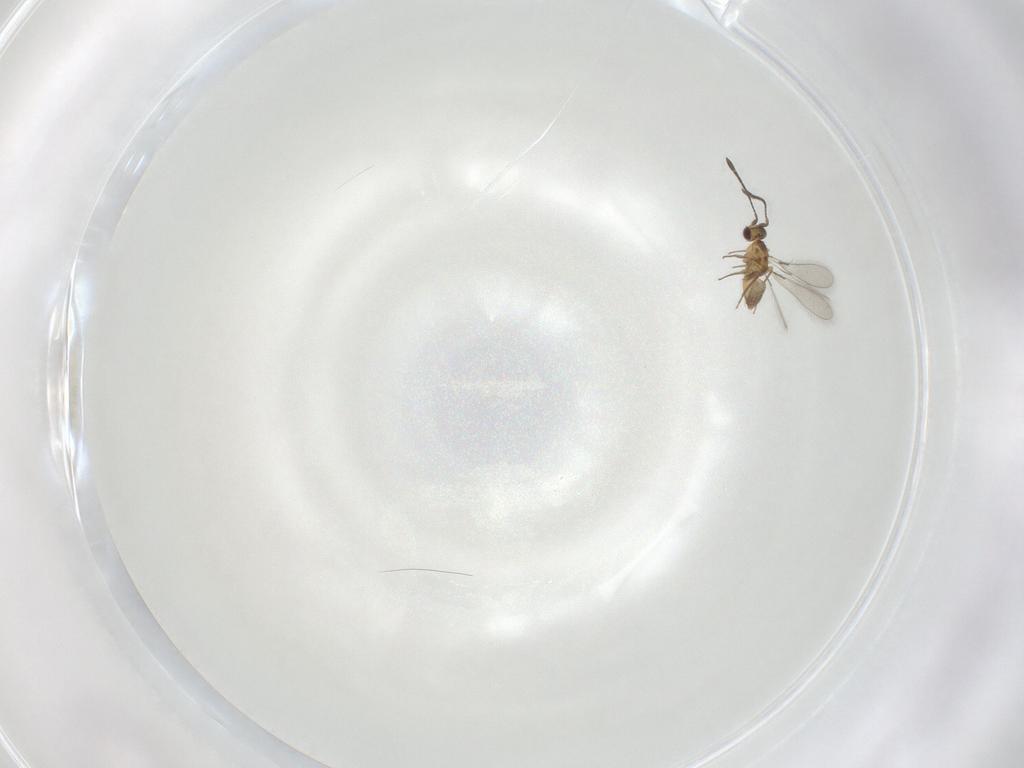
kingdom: Animalia
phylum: Arthropoda
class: Insecta
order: Hymenoptera
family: Mymaridae
